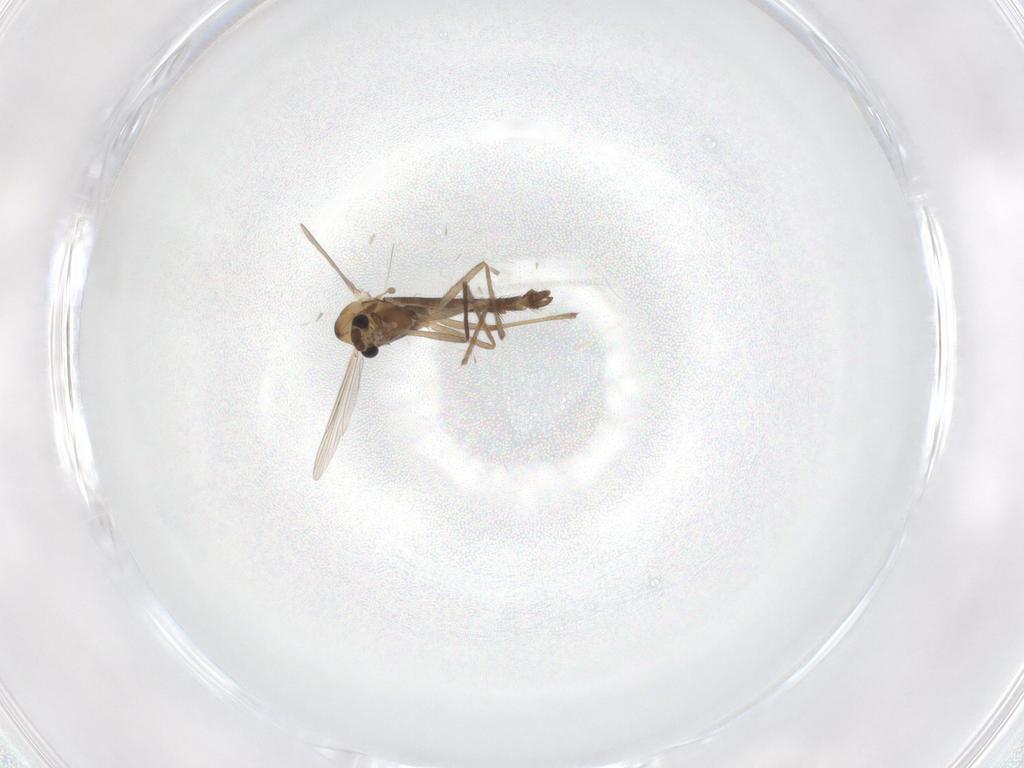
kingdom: Animalia
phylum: Arthropoda
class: Insecta
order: Diptera
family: Chironomidae
